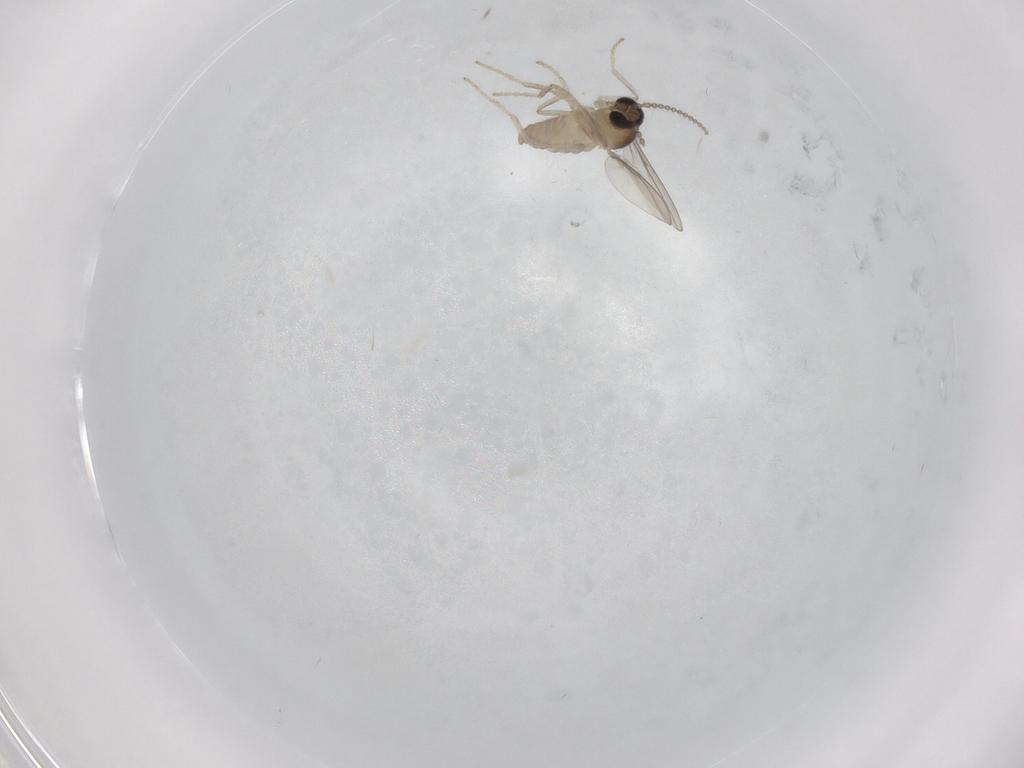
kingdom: Animalia
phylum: Arthropoda
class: Insecta
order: Diptera
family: Cecidomyiidae
